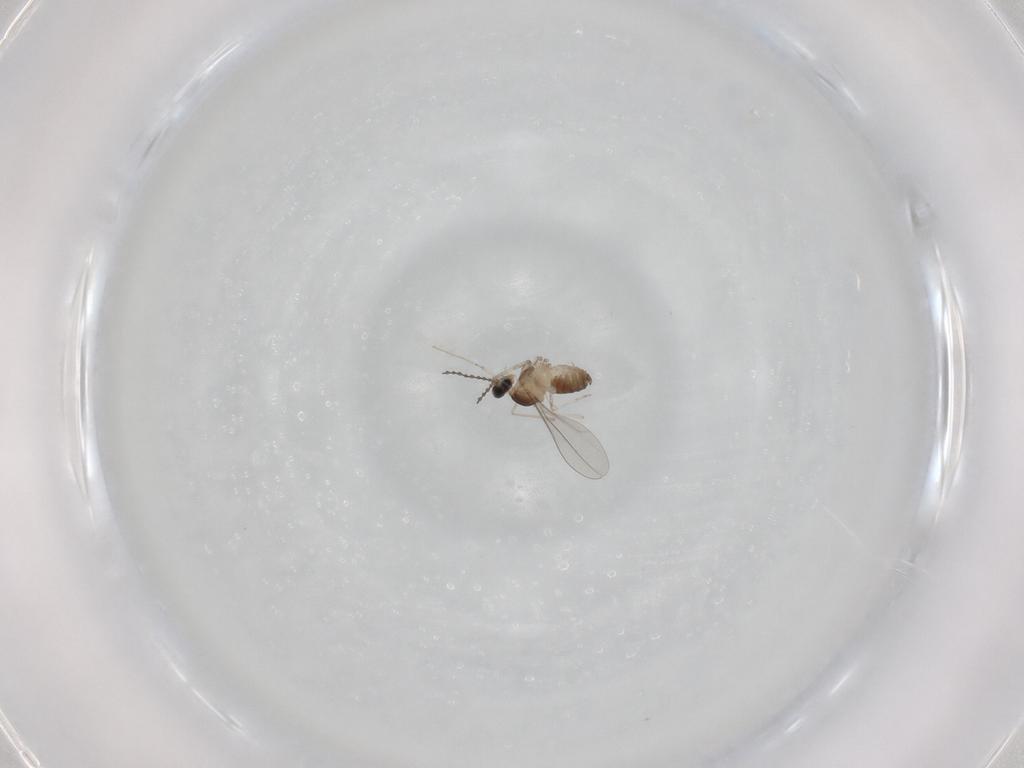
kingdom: Animalia
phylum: Arthropoda
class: Insecta
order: Diptera
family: Cecidomyiidae
